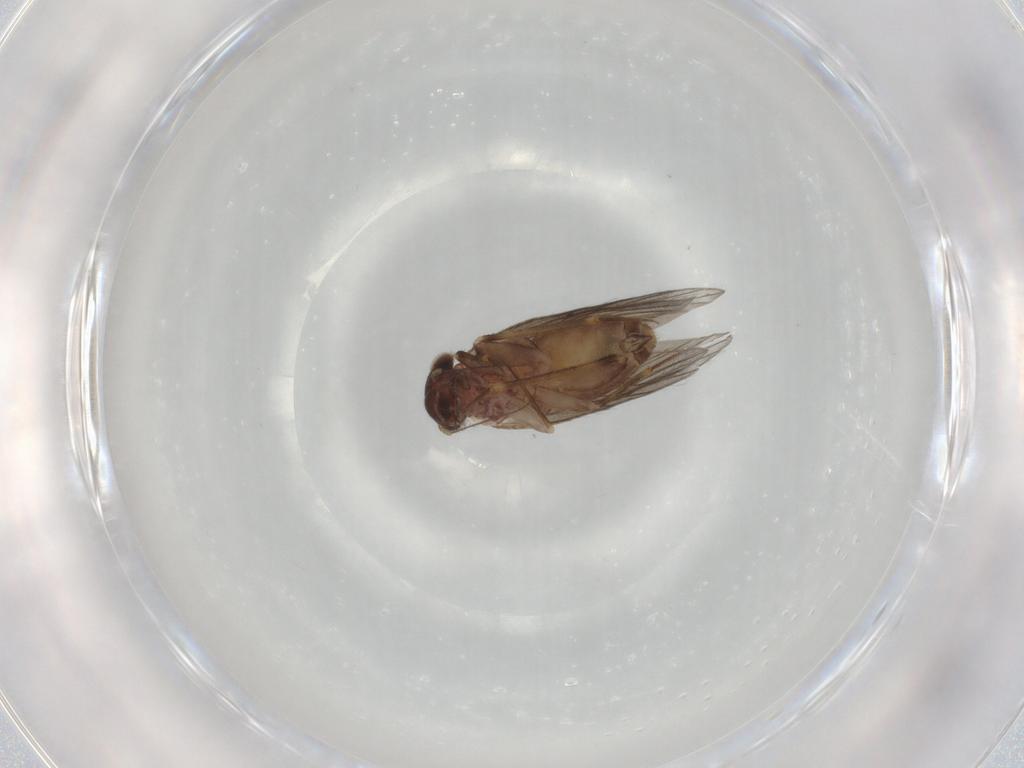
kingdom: Animalia
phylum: Arthropoda
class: Insecta
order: Psocodea
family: Lepidopsocidae
